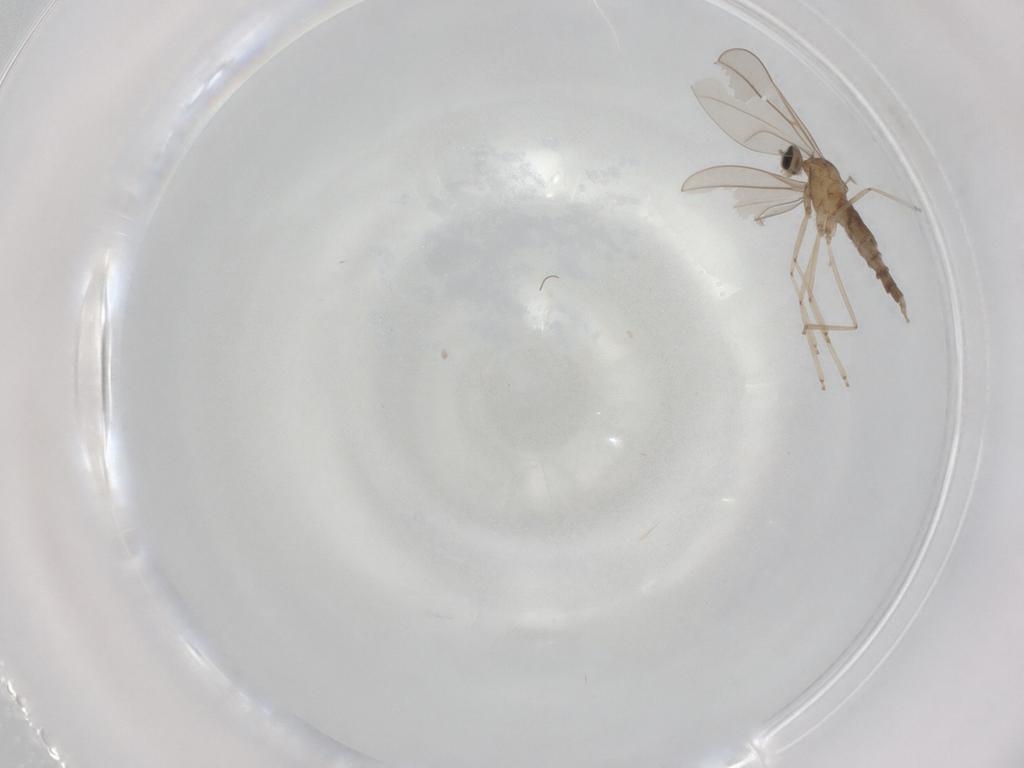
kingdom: Animalia
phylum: Arthropoda
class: Insecta
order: Diptera
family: Cecidomyiidae
